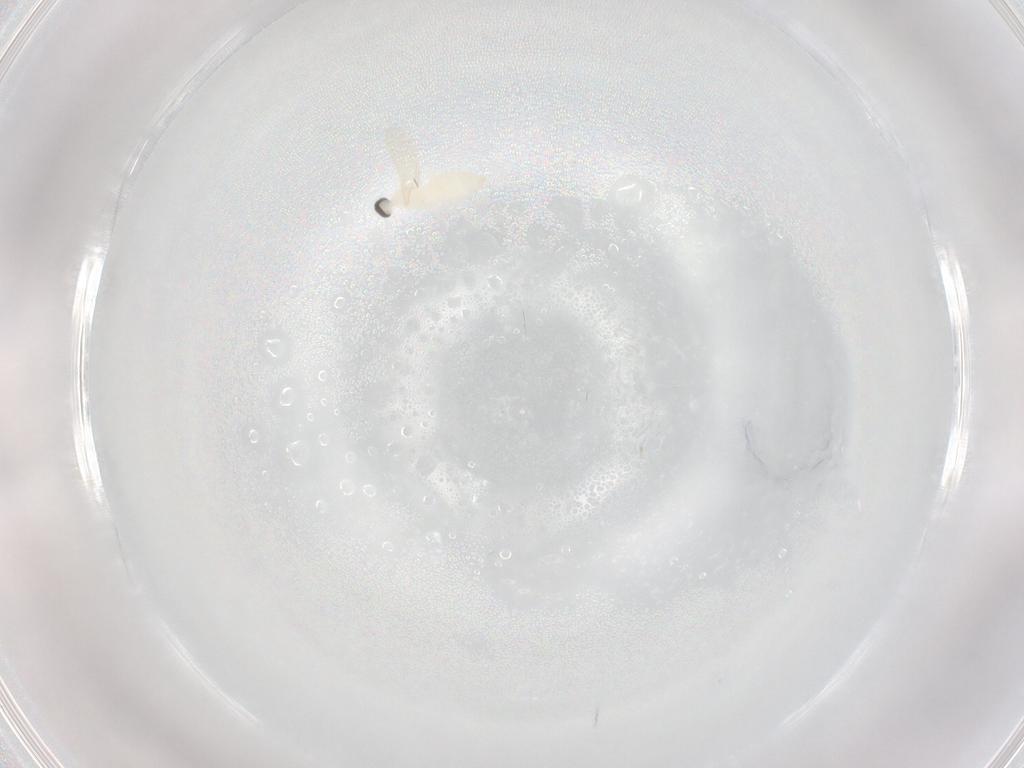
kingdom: Animalia
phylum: Arthropoda
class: Insecta
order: Diptera
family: Cecidomyiidae
